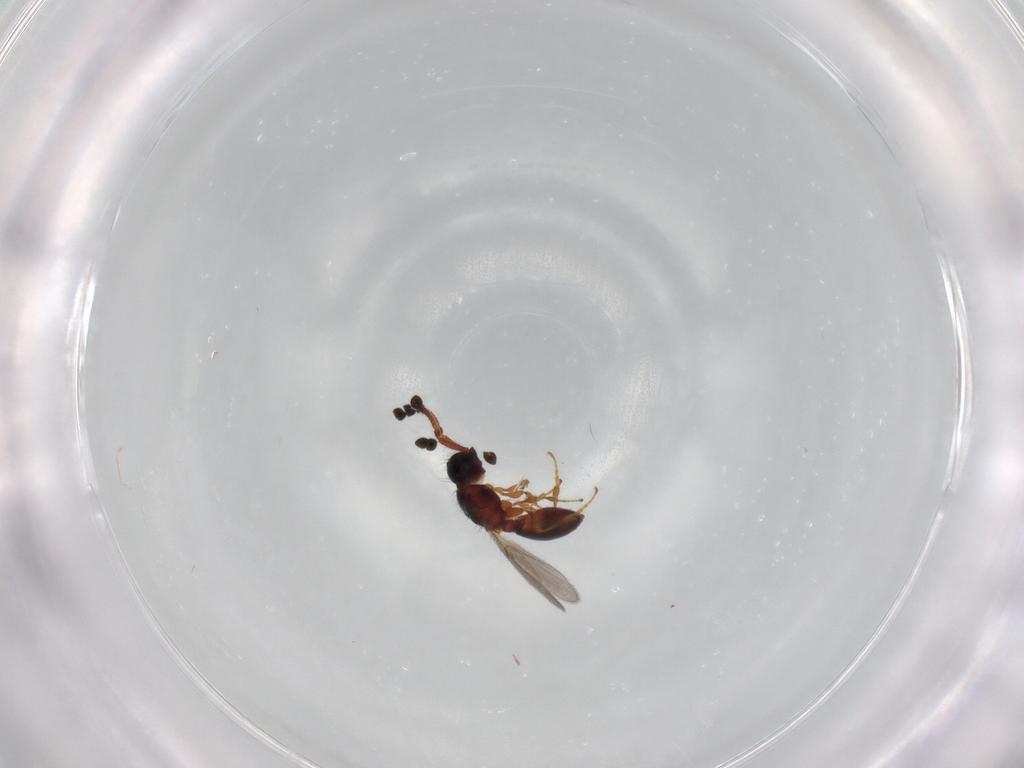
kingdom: Animalia
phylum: Arthropoda
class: Insecta
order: Hymenoptera
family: Diapriidae
